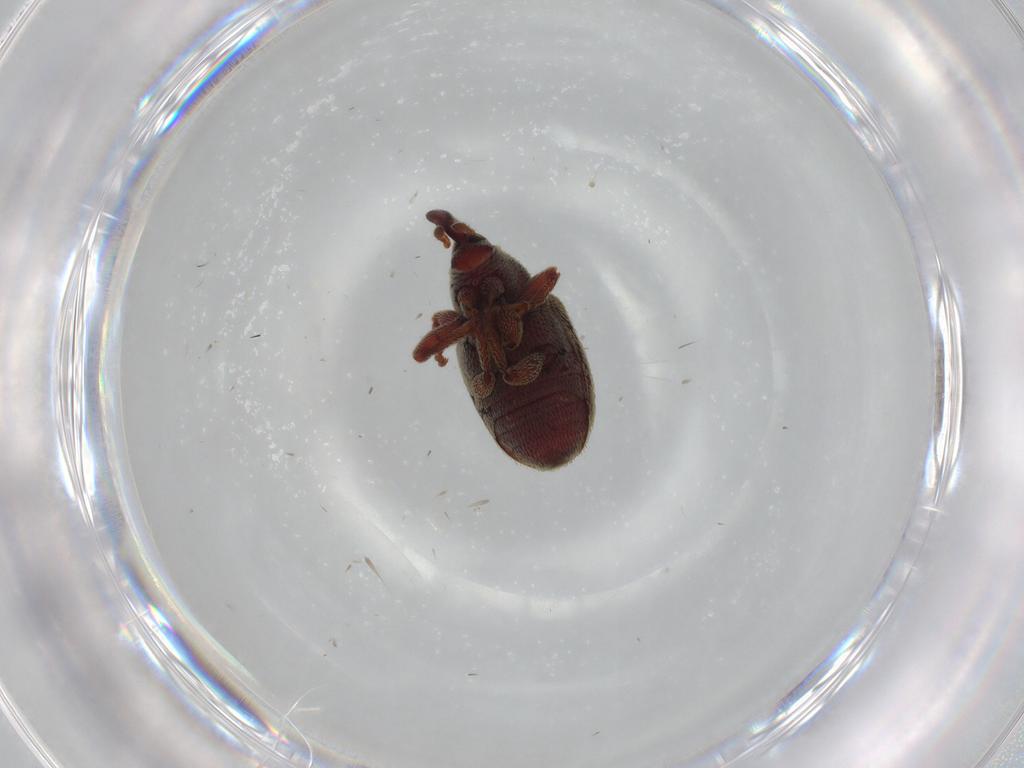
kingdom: Animalia
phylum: Arthropoda
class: Insecta
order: Coleoptera
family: Curculionidae
